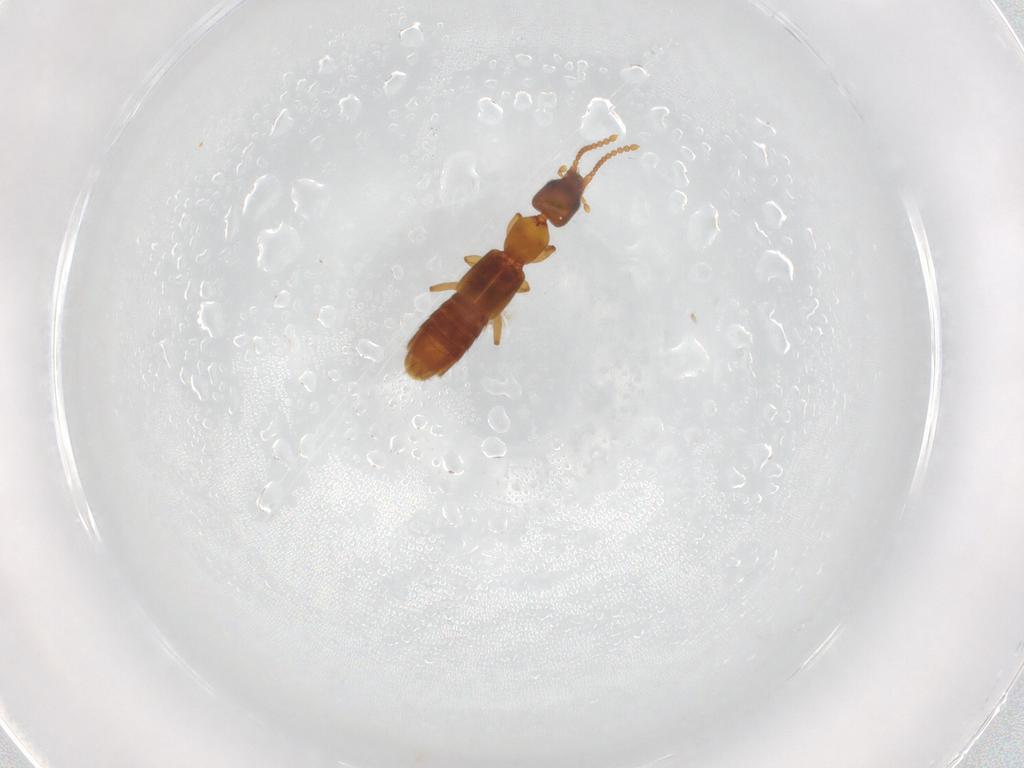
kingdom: Animalia
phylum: Arthropoda
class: Insecta
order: Coleoptera
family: Staphylinidae
